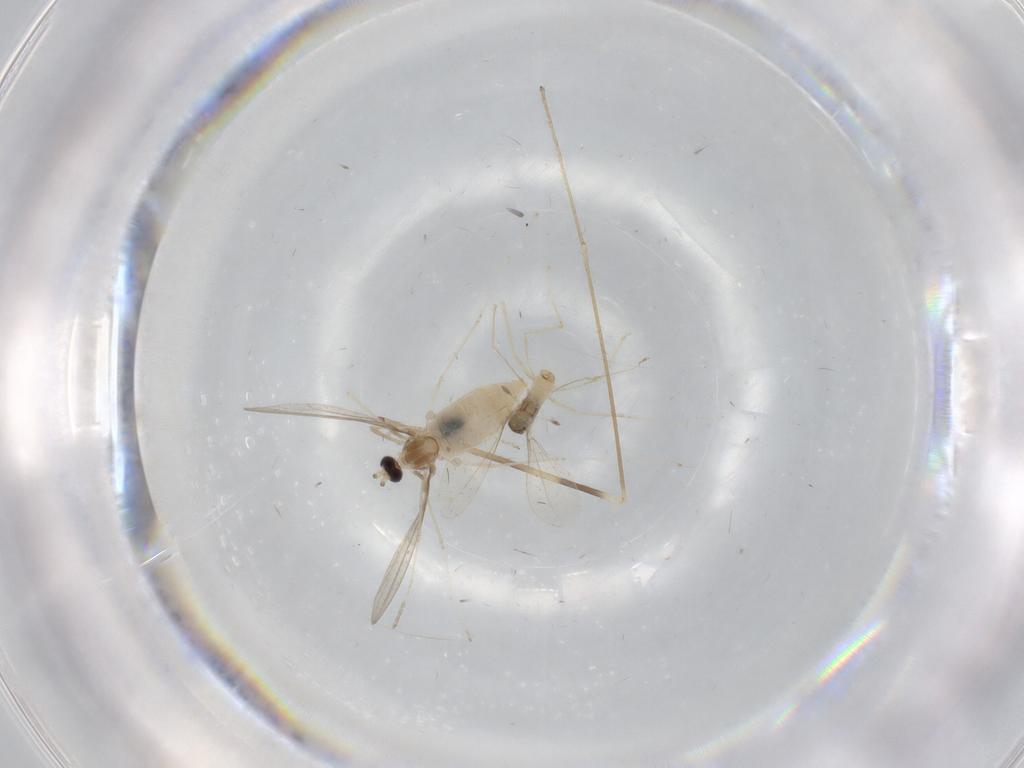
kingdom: Animalia
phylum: Arthropoda
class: Insecta
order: Diptera
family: Cecidomyiidae
